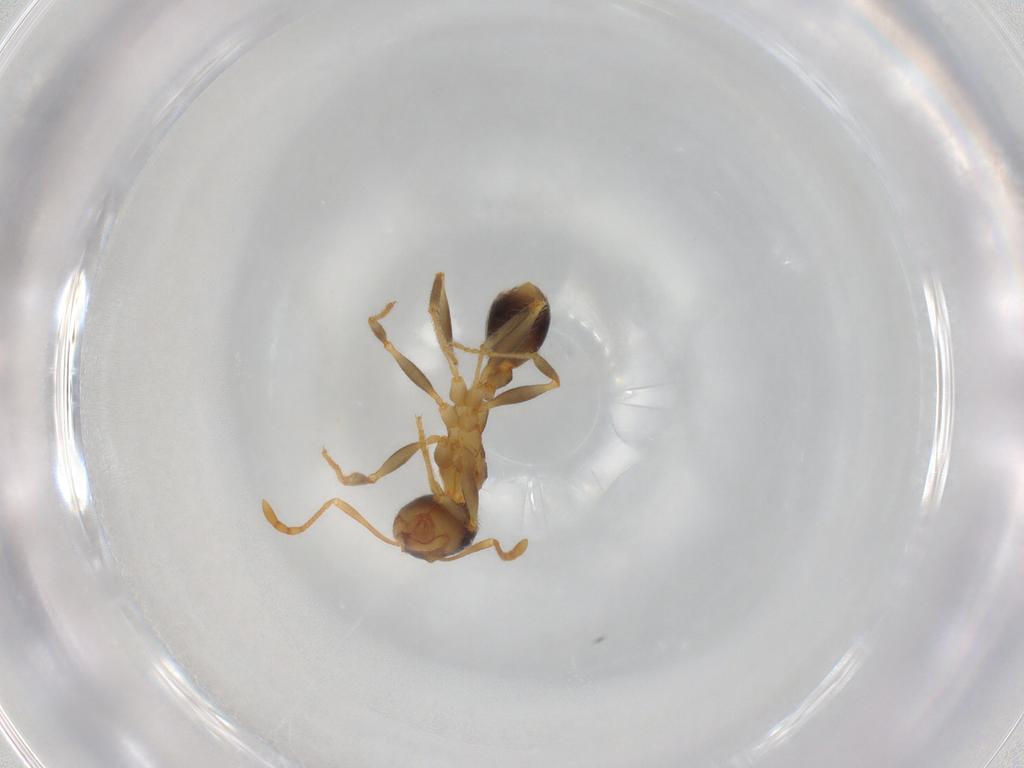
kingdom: Animalia
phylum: Arthropoda
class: Insecta
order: Hymenoptera
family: Formicidae
